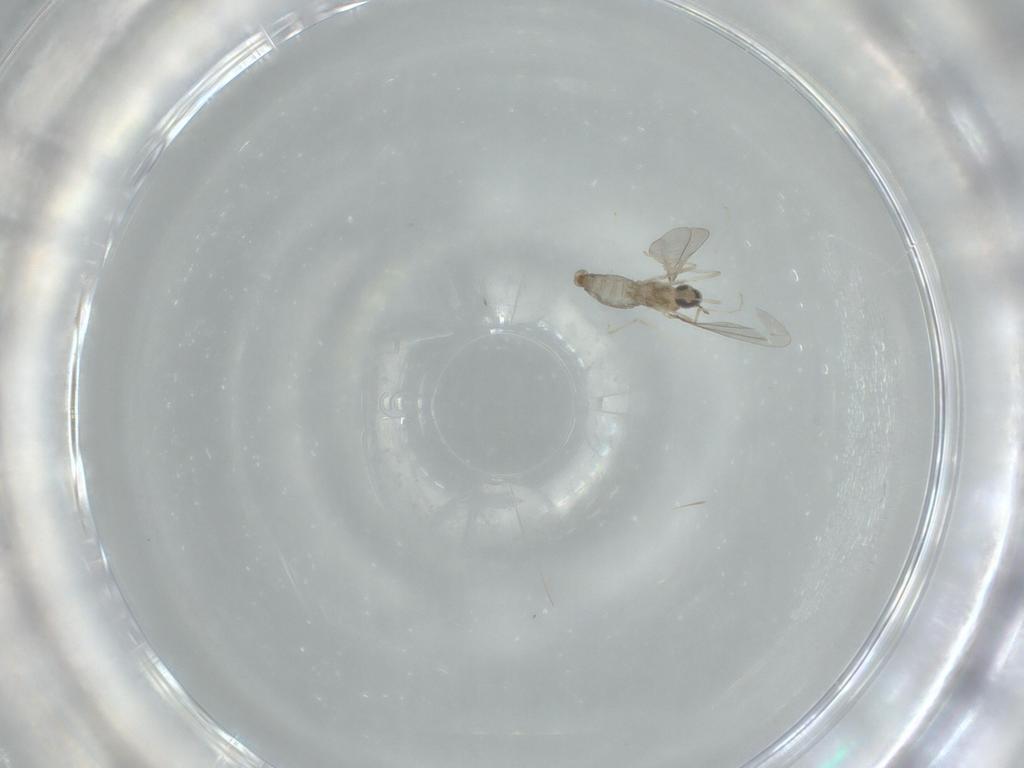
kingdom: Animalia
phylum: Arthropoda
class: Insecta
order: Diptera
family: Cecidomyiidae
